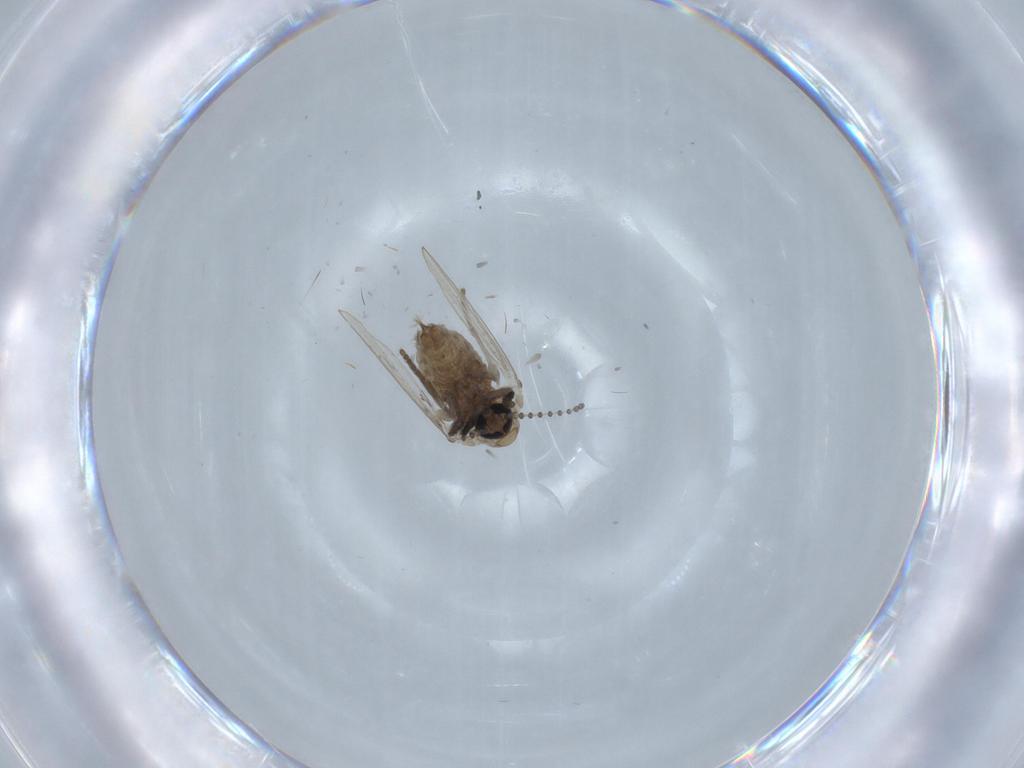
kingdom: Animalia
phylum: Arthropoda
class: Insecta
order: Diptera
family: Psychodidae
